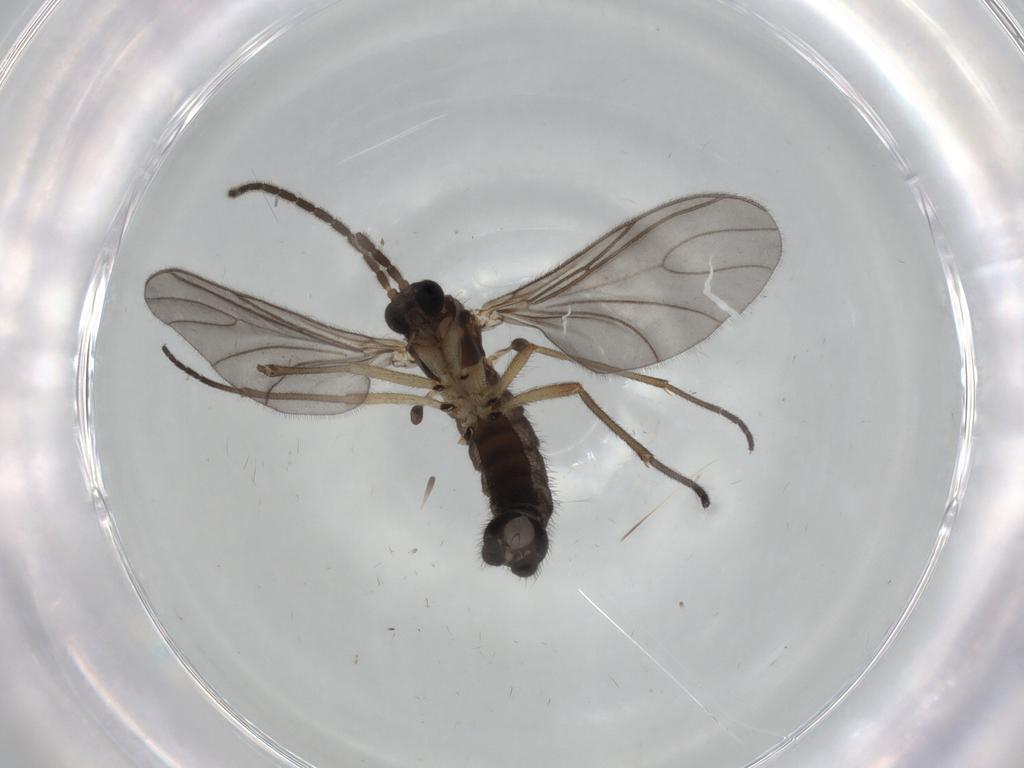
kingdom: Animalia
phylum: Arthropoda
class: Insecta
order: Diptera
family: Sciaridae
